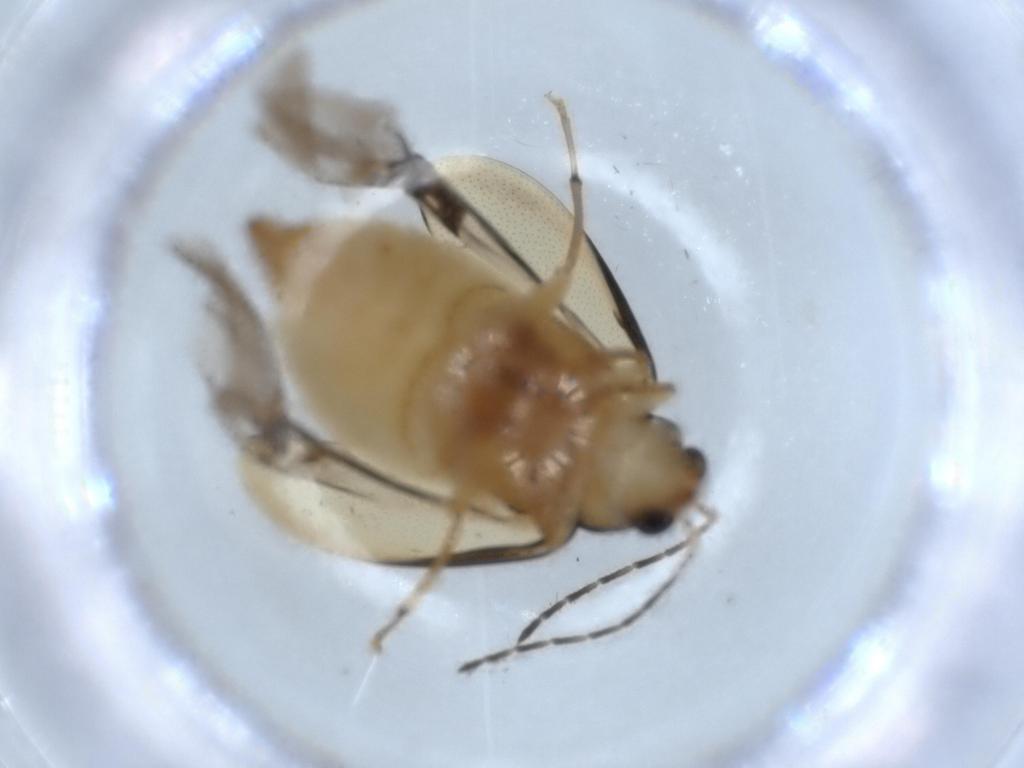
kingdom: Animalia
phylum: Arthropoda
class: Insecta
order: Coleoptera
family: Chrysomelidae
